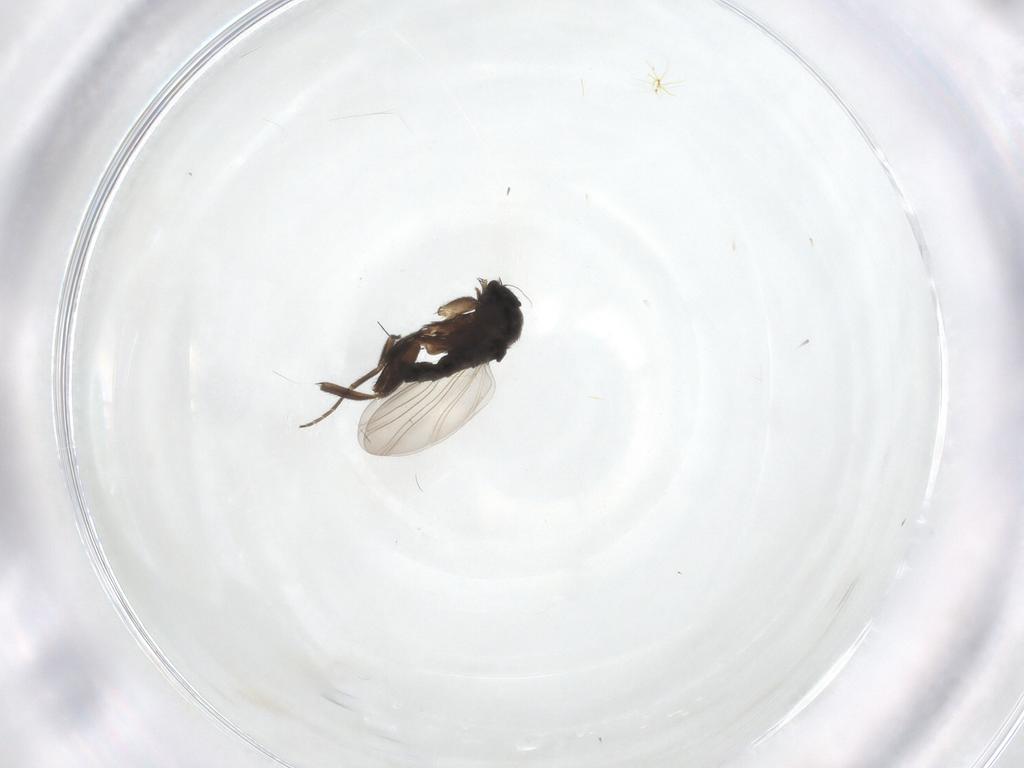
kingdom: Animalia
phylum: Arthropoda
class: Insecta
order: Diptera
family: Phoridae
